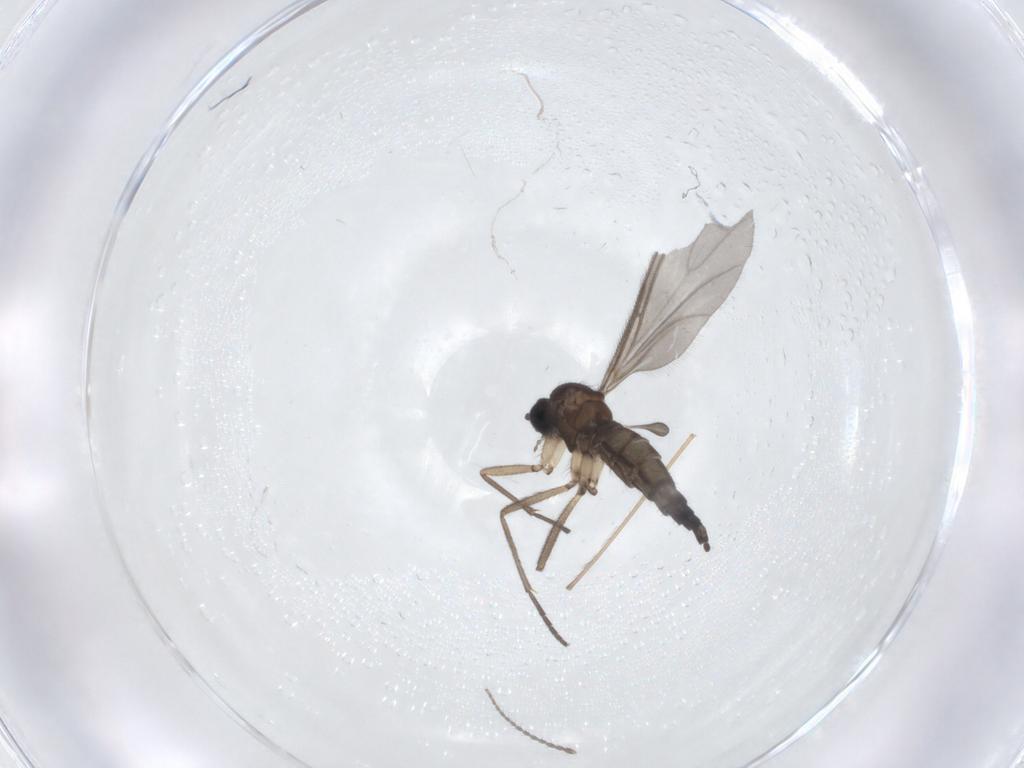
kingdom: Animalia
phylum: Arthropoda
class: Insecta
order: Diptera
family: Sciaridae
